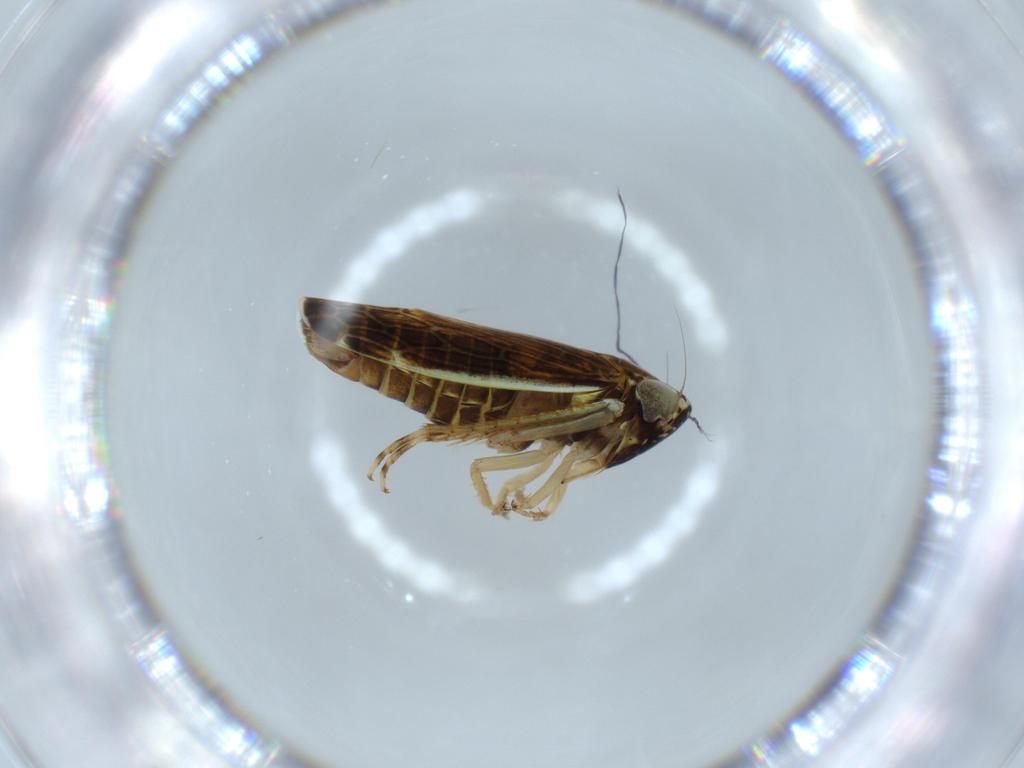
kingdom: Animalia
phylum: Arthropoda
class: Insecta
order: Hemiptera
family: Cicadellidae
